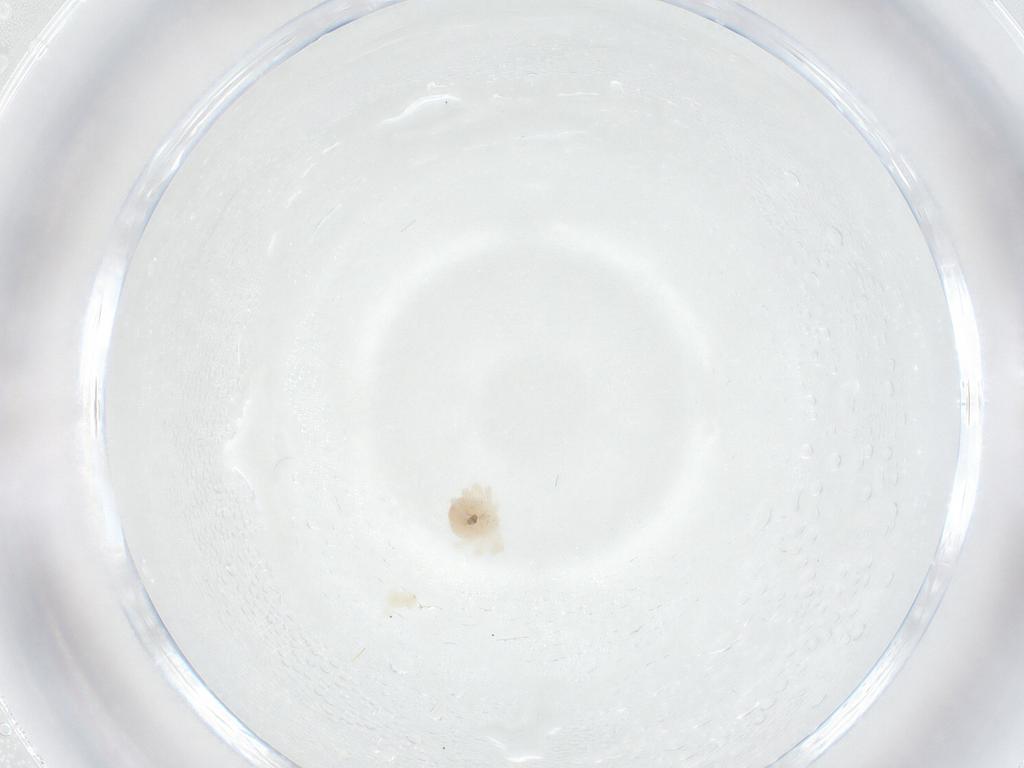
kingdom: Animalia
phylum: Arthropoda
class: Arachnida
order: Trombidiformes
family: Anystidae
